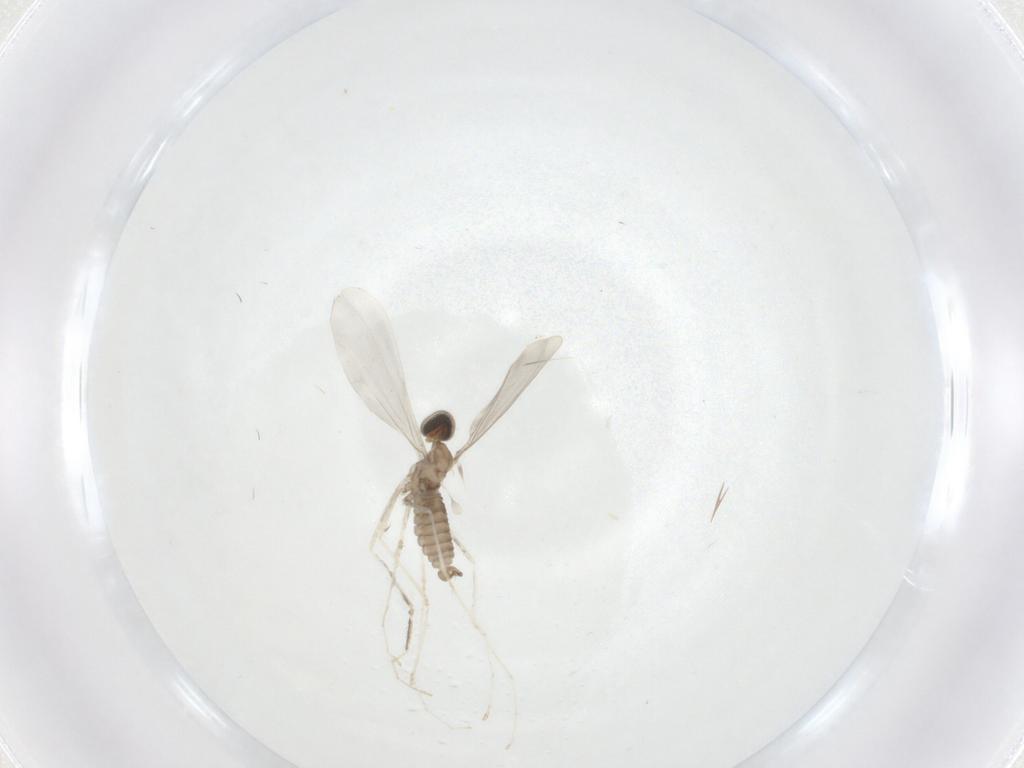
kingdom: Animalia
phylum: Arthropoda
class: Insecta
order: Diptera
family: Cecidomyiidae
